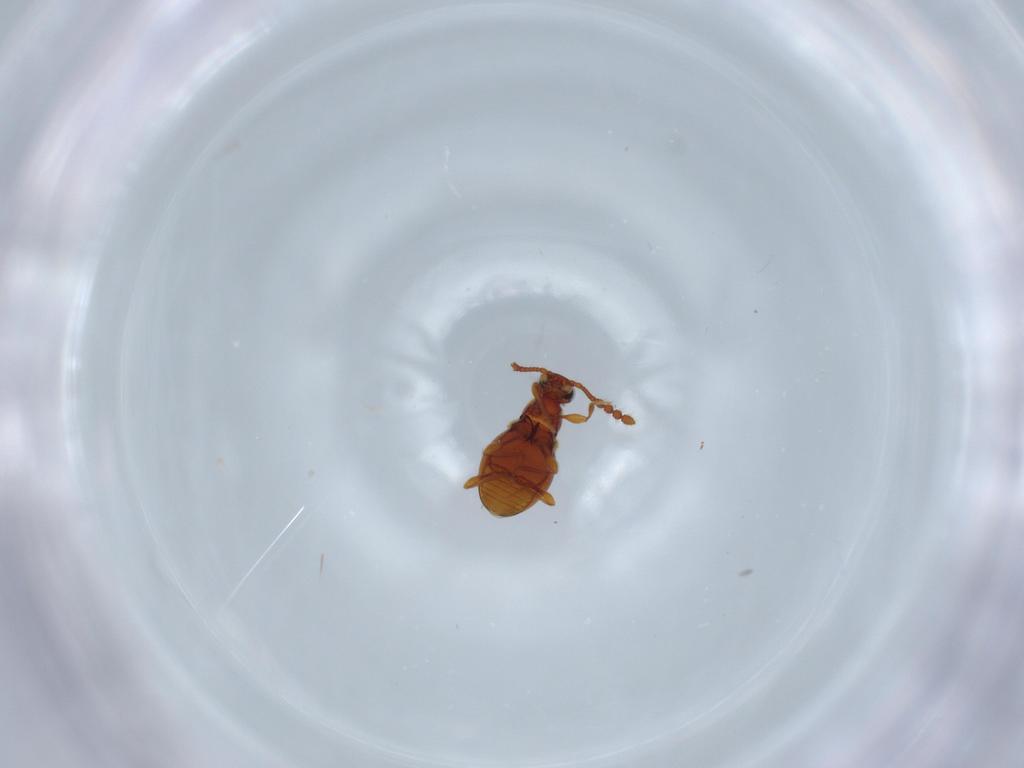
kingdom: Animalia
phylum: Arthropoda
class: Insecta
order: Coleoptera
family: Staphylinidae
